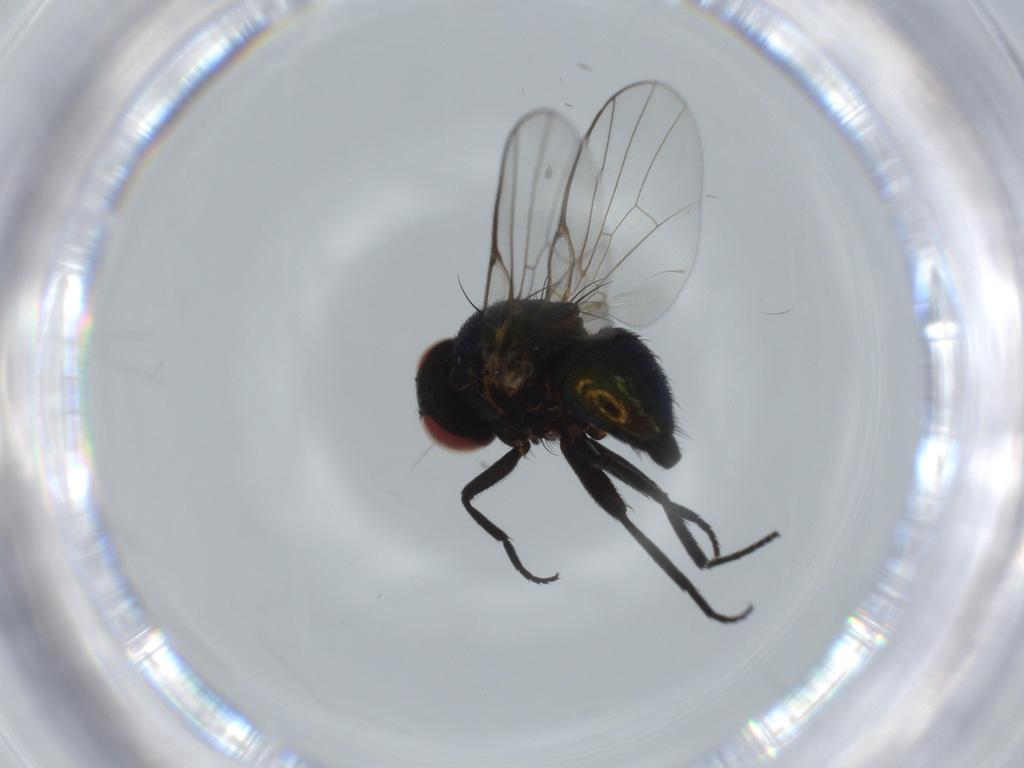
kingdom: Animalia
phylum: Arthropoda
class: Insecta
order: Diptera
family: Agromyzidae
